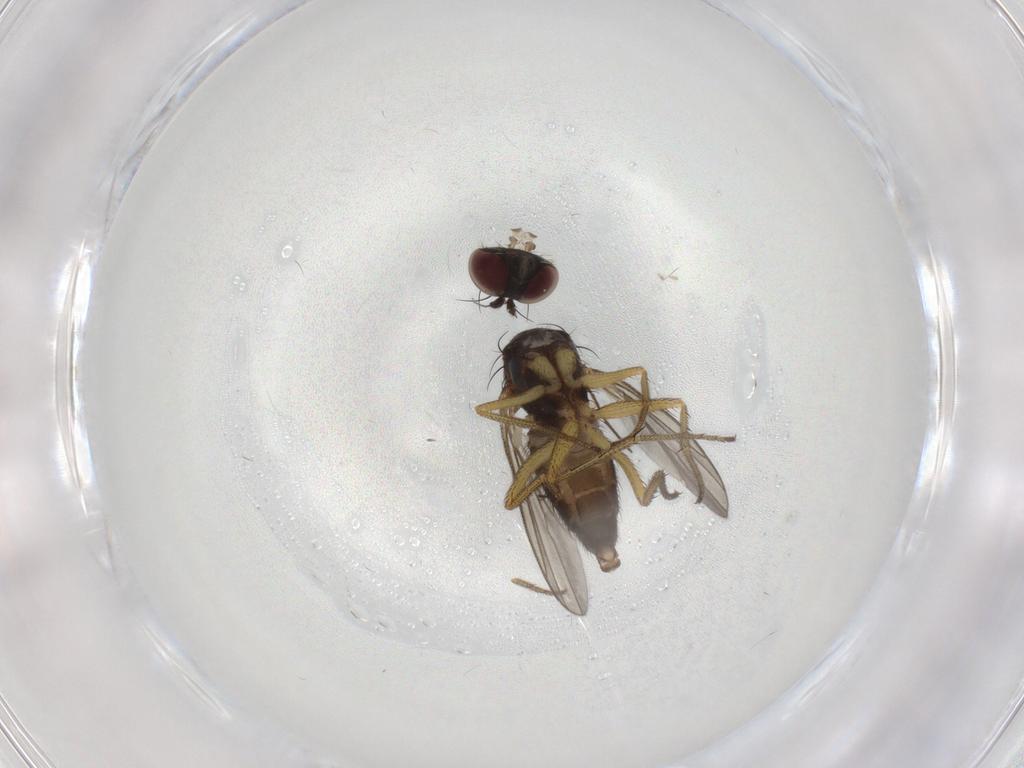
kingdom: Animalia
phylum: Arthropoda
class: Insecta
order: Diptera
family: Dolichopodidae
